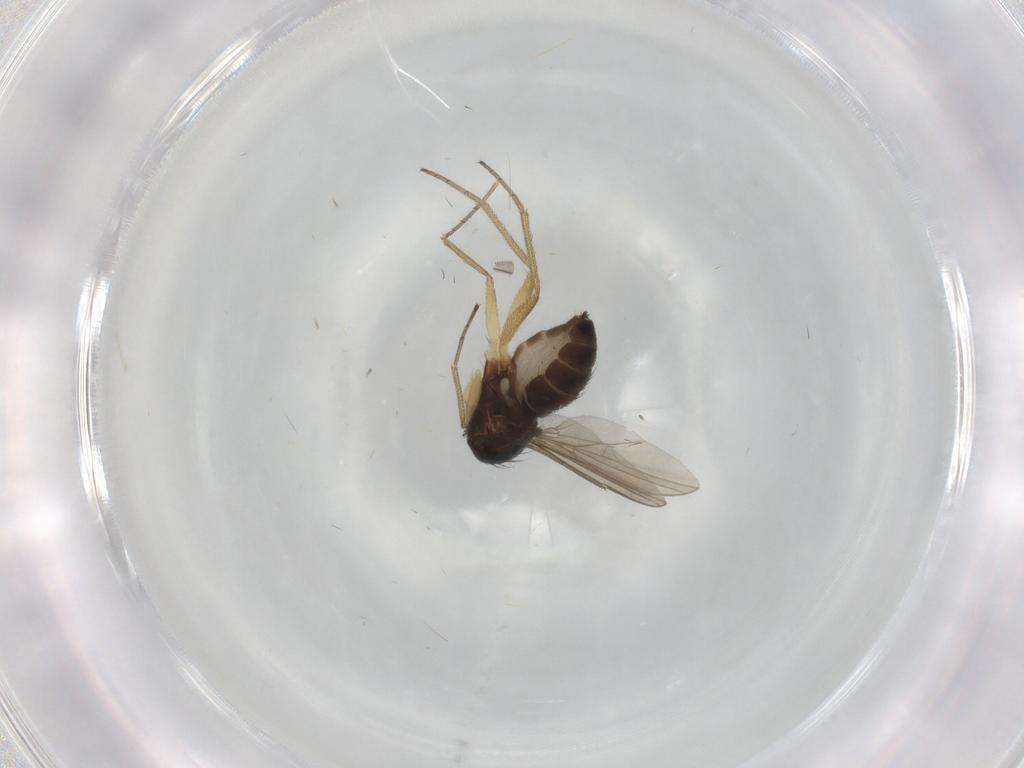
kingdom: Animalia
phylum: Arthropoda
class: Insecta
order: Diptera
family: Dolichopodidae
